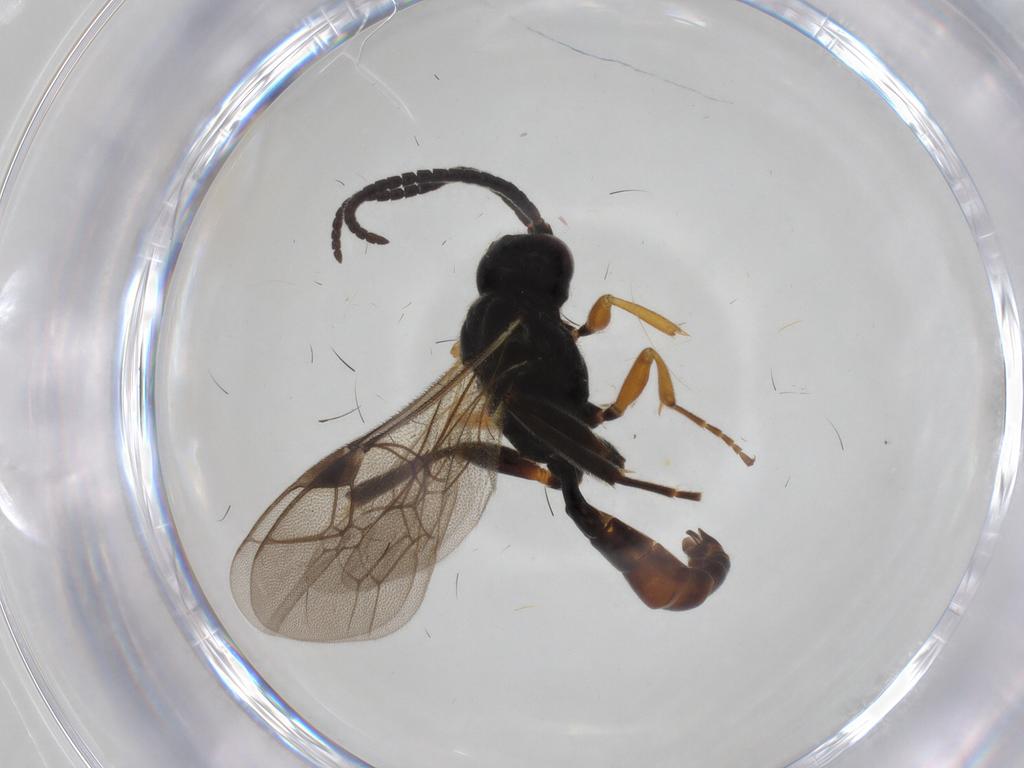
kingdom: Animalia
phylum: Arthropoda
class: Insecta
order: Hymenoptera
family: Ichneumonidae
